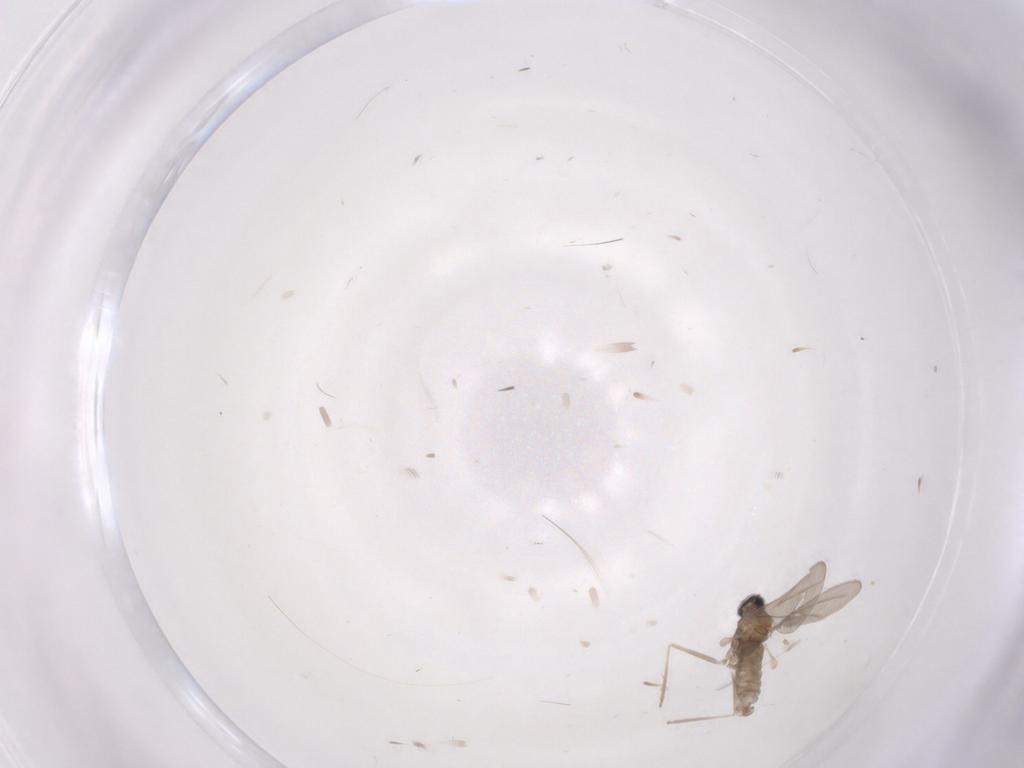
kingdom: Animalia
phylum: Arthropoda
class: Insecta
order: Diptera
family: Cecidomyiidae
